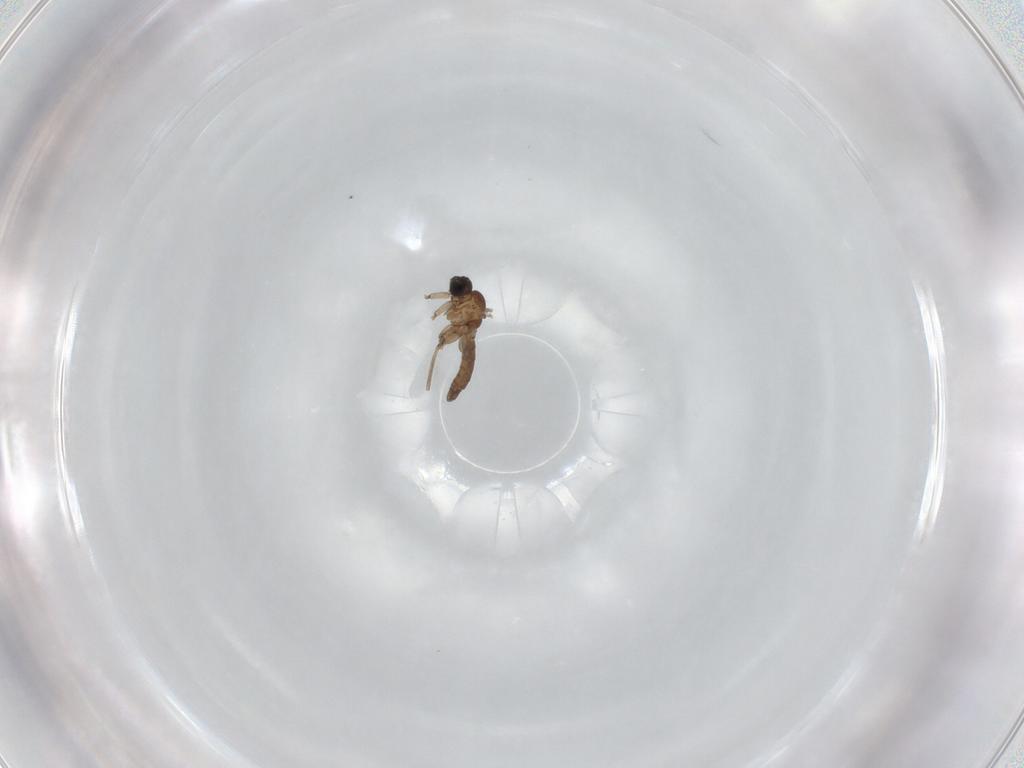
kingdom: Animalia
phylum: Arthropoda
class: Insecta
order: Diptera
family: Sciaridae
